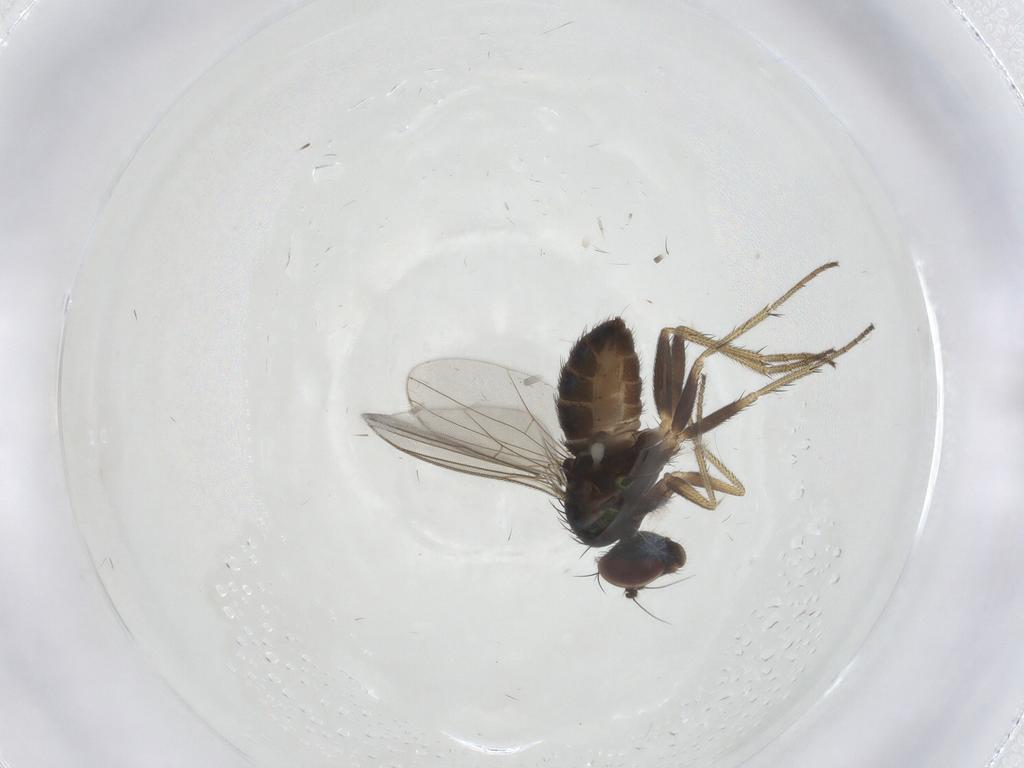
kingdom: Animalia
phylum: Arthropoda
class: Insecta
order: Diptera
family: Dolichopodidae
